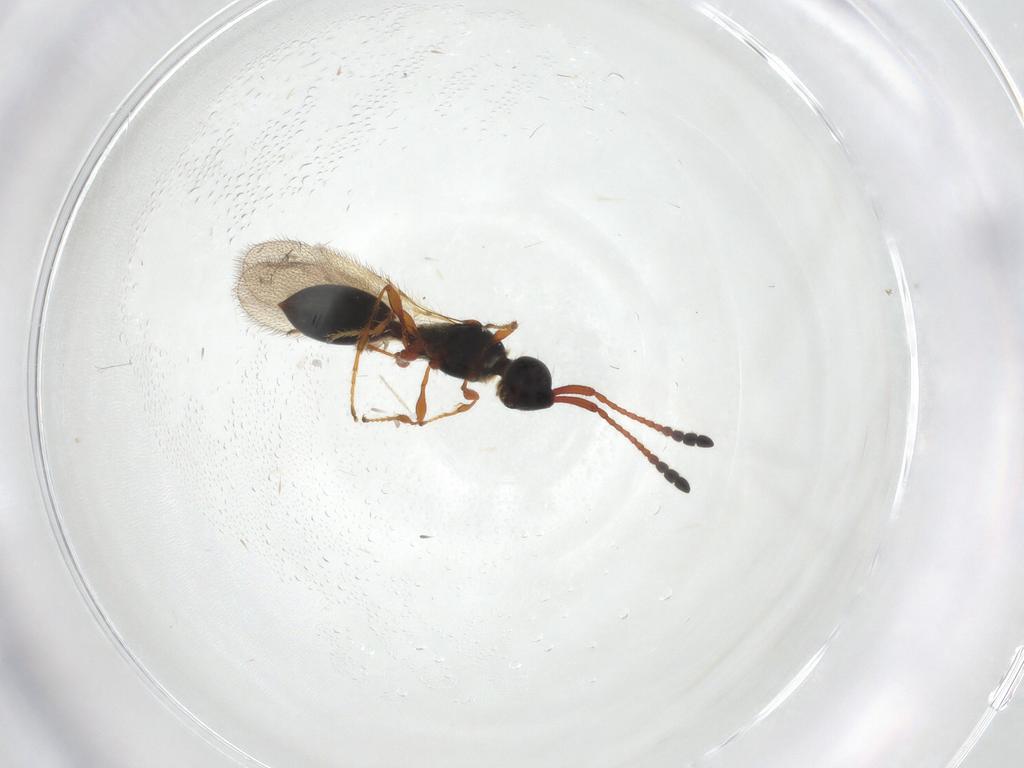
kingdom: Animalia
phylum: Arthropoda
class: Insecta
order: Hymenoptera
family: Diapriidae
